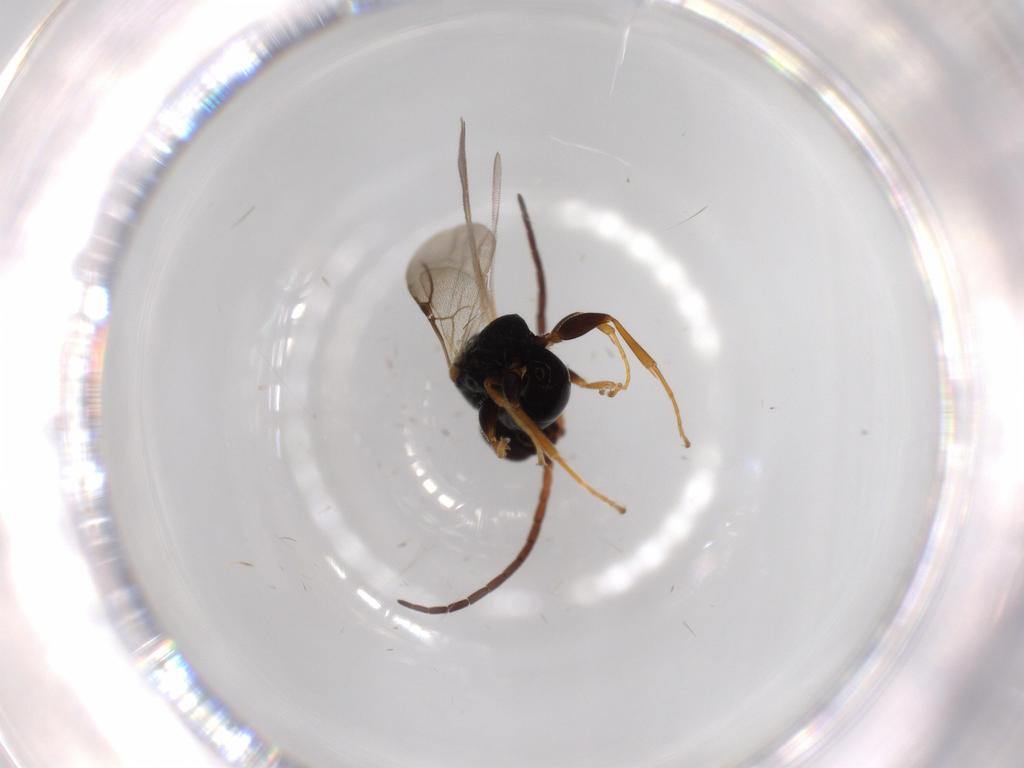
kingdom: Animalia
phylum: Arthropoda
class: Insecta
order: Hymenoptera
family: Bethylidae
